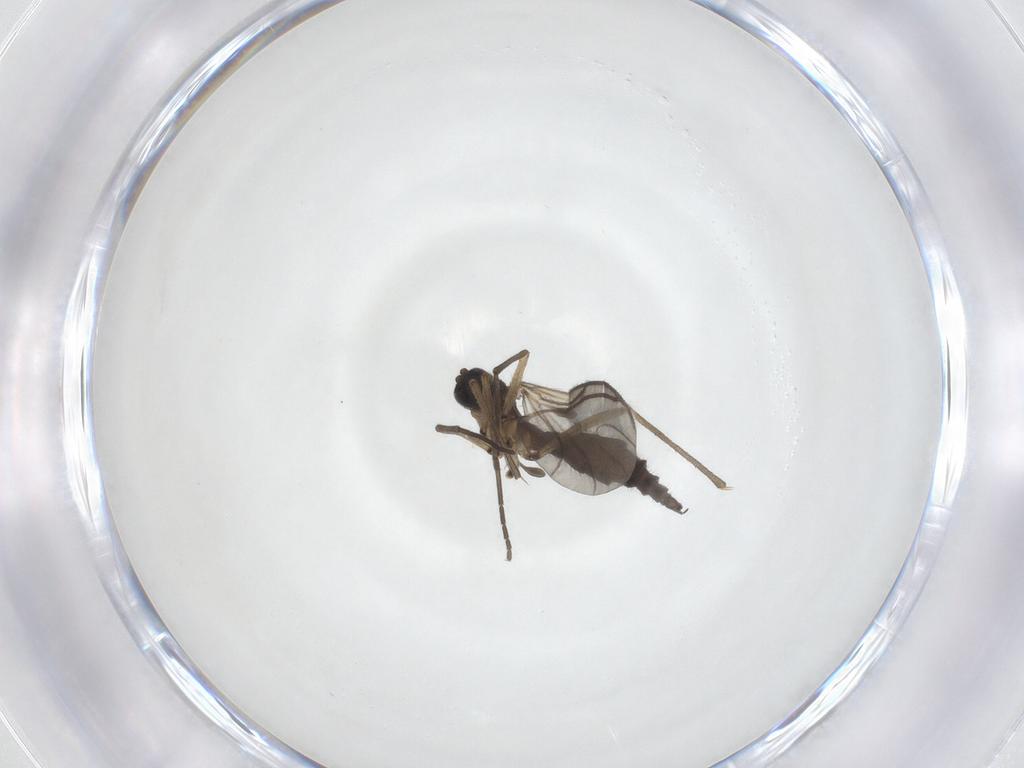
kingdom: Animalia
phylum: Arthropoda
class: Insecta
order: Diptera
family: Sciaridae
